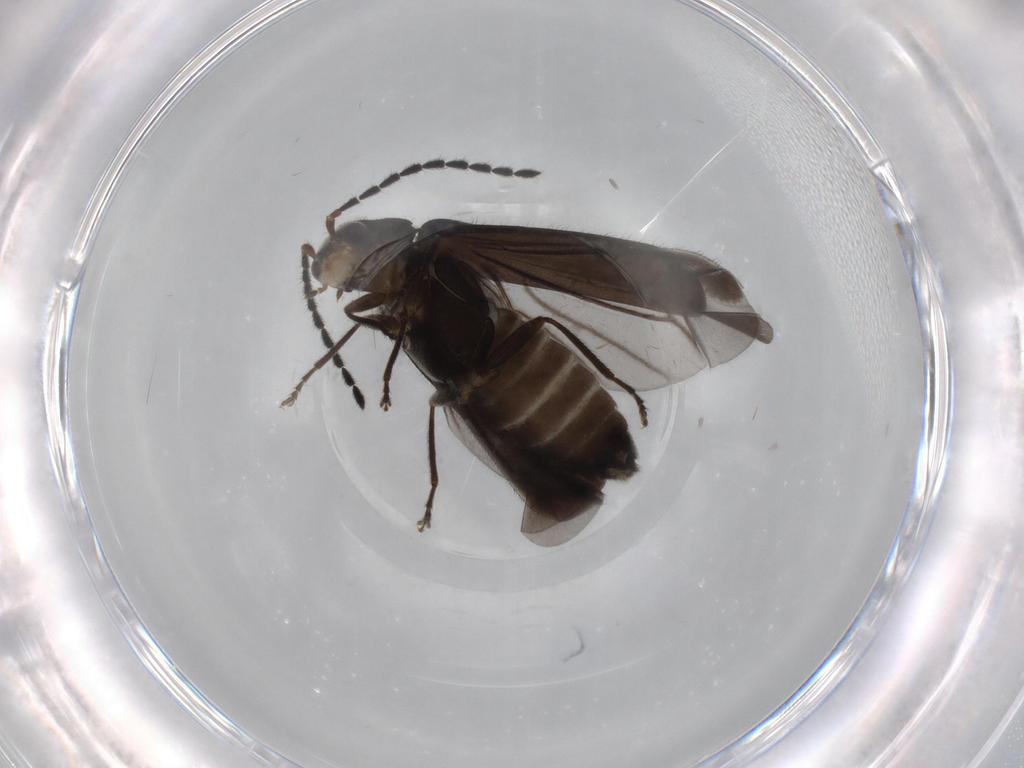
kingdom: Animalia
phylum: Arthropoda
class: Insecta
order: Coleoptera
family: Cantharidae
